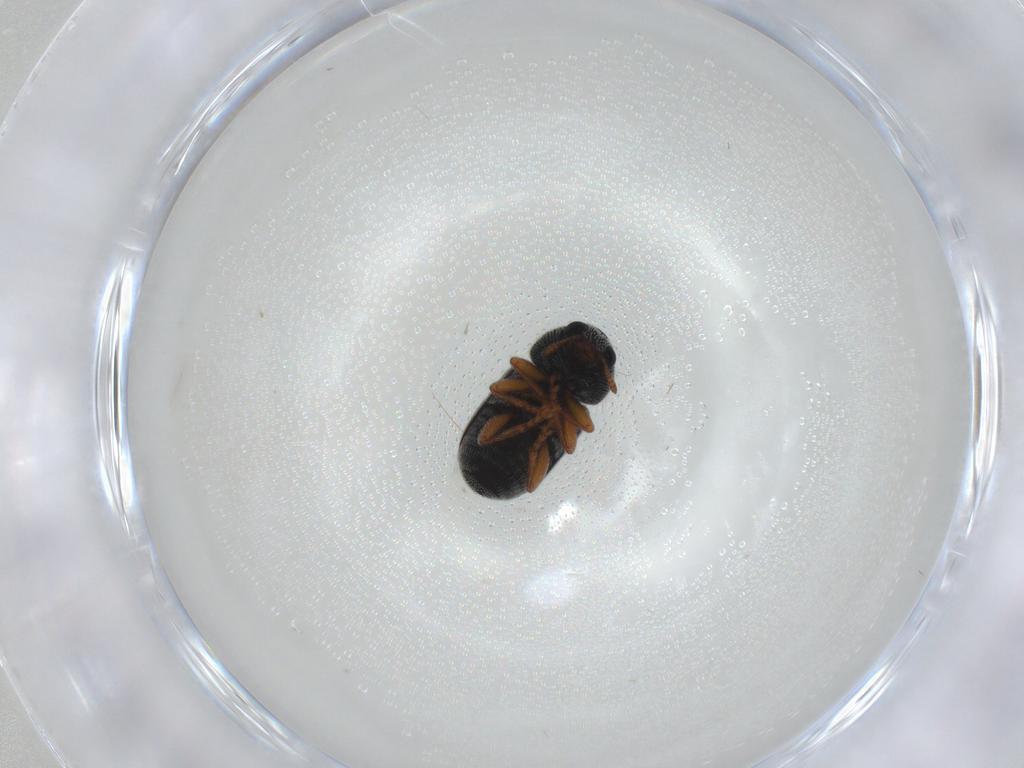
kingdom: Animalia
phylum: Arthropoda
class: Insecta
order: Coleoptera
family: Anthribidae
